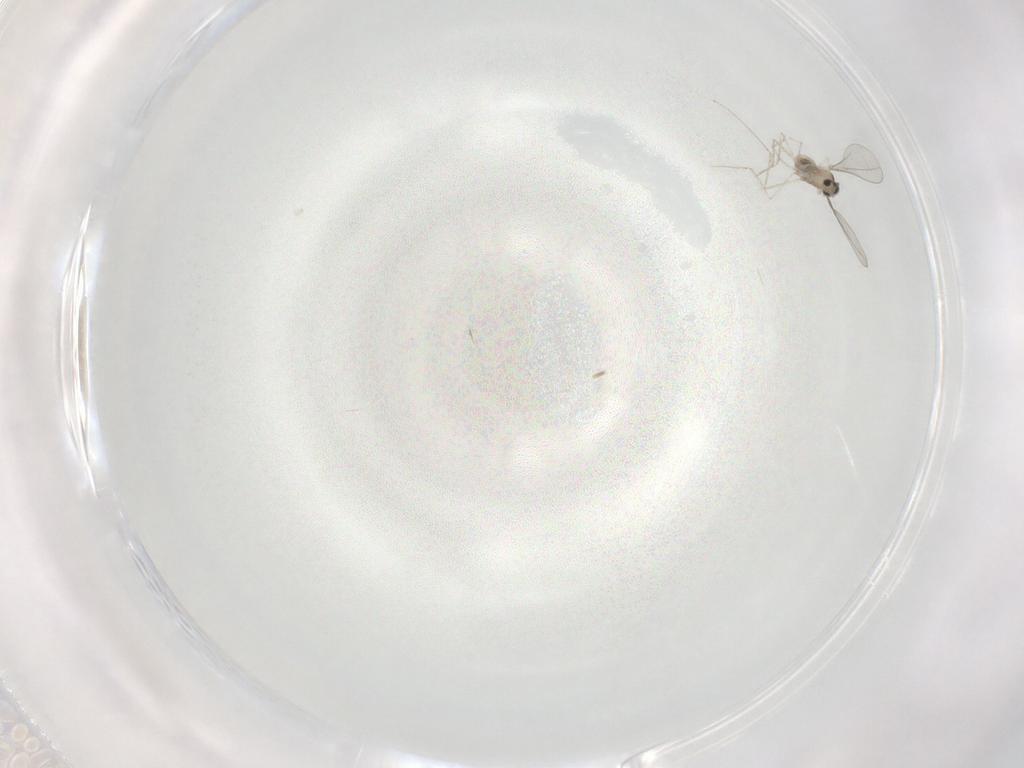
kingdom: Animalia
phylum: Arthropoda
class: Insecta
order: Diptera
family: Cecidomyiidae
